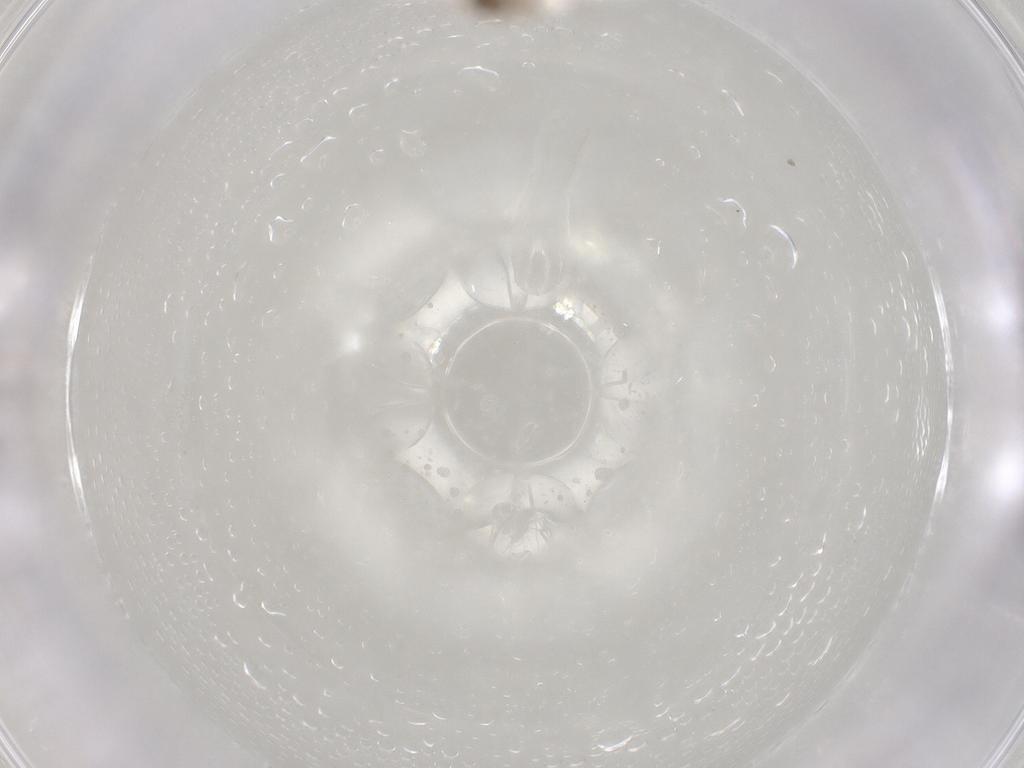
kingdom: Animalia
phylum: Arthropoda
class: Insecta
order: Diptera
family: Cecidomyiidae
